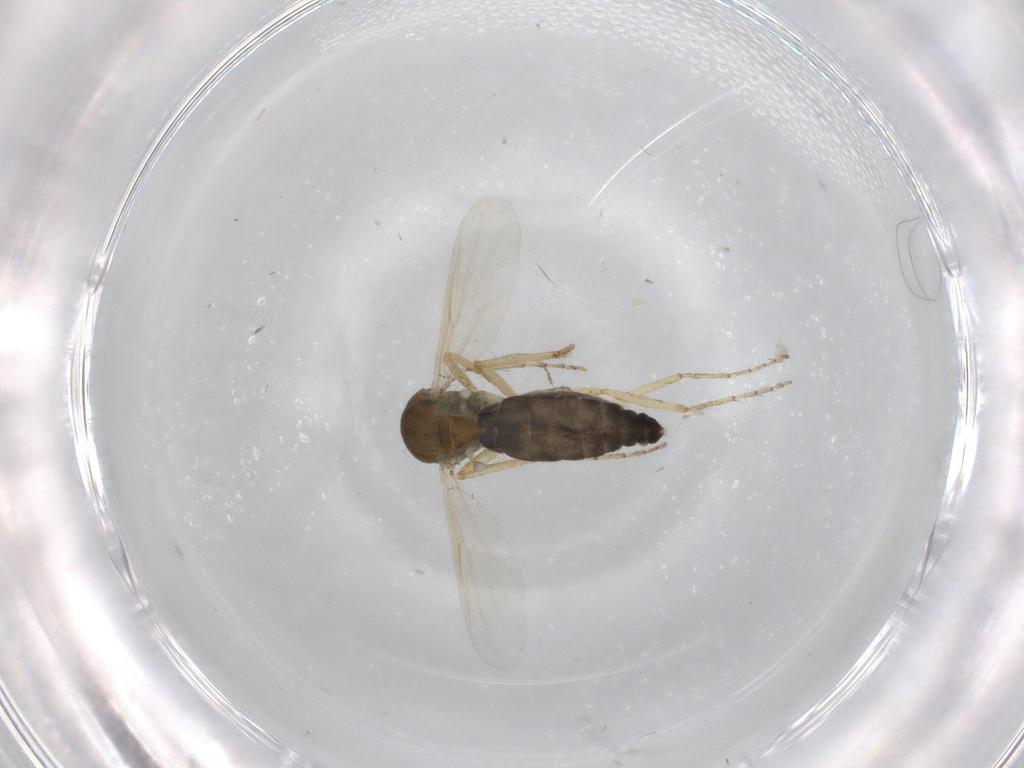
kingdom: Animalia
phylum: Arthropoda
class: Insecta
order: Diptera
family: Ceratopogonidae
